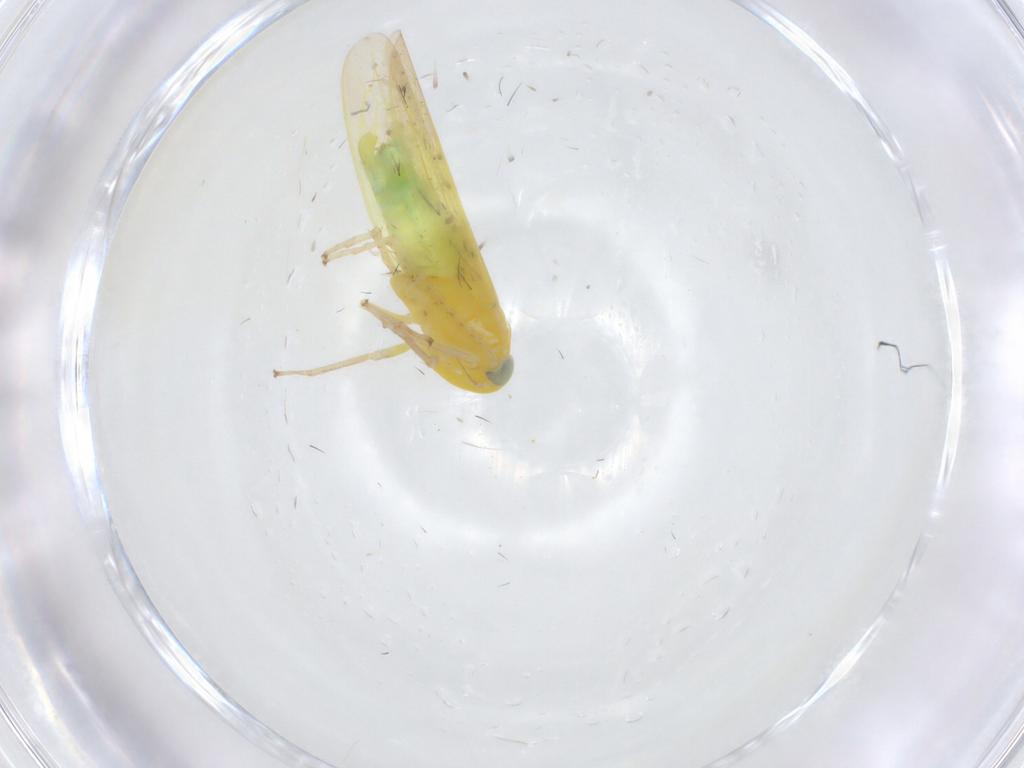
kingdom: Animalia
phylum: Arthropoda
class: Insecta
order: Hemiptera
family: Cicadellidae
